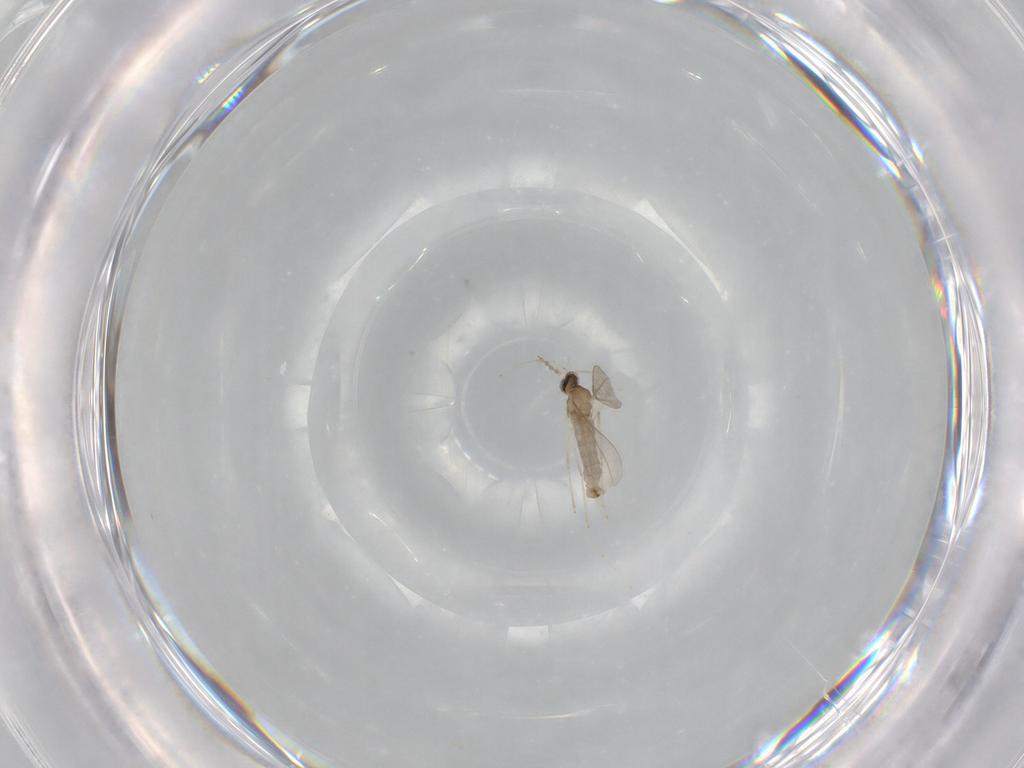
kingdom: Animalia
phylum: Arthropoda
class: Insecta
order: Diptera
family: Cecidomyiidae
